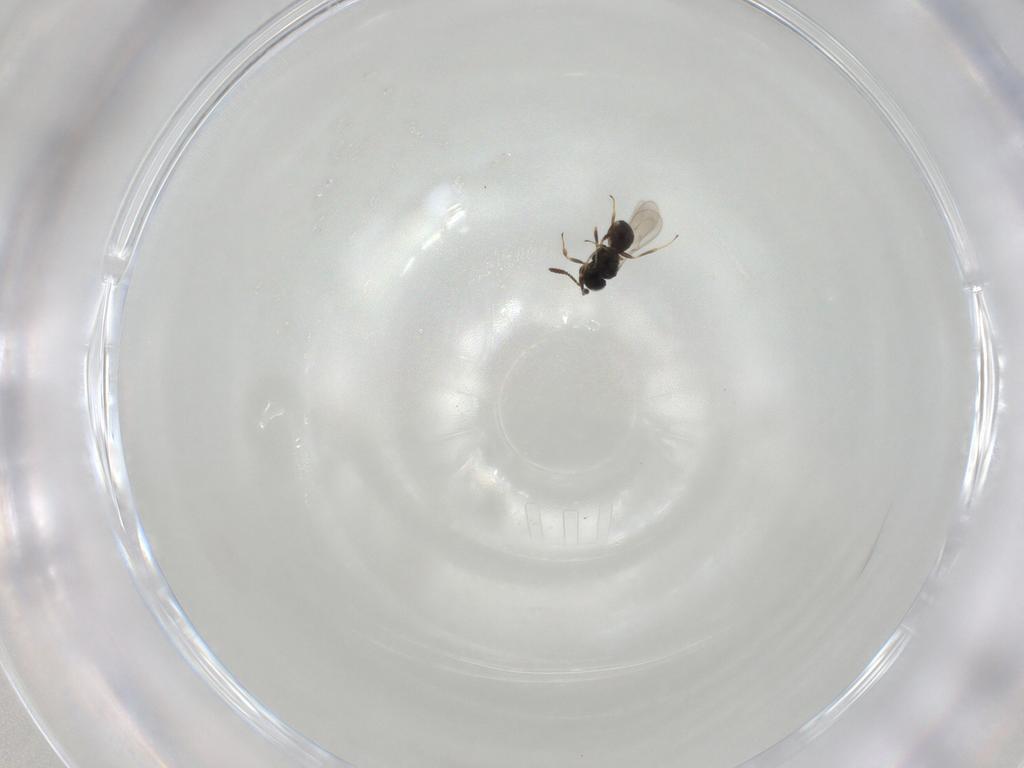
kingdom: Animalia
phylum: Arthropoda
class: Insecta
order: Hymenoptera
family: Scelionidae
